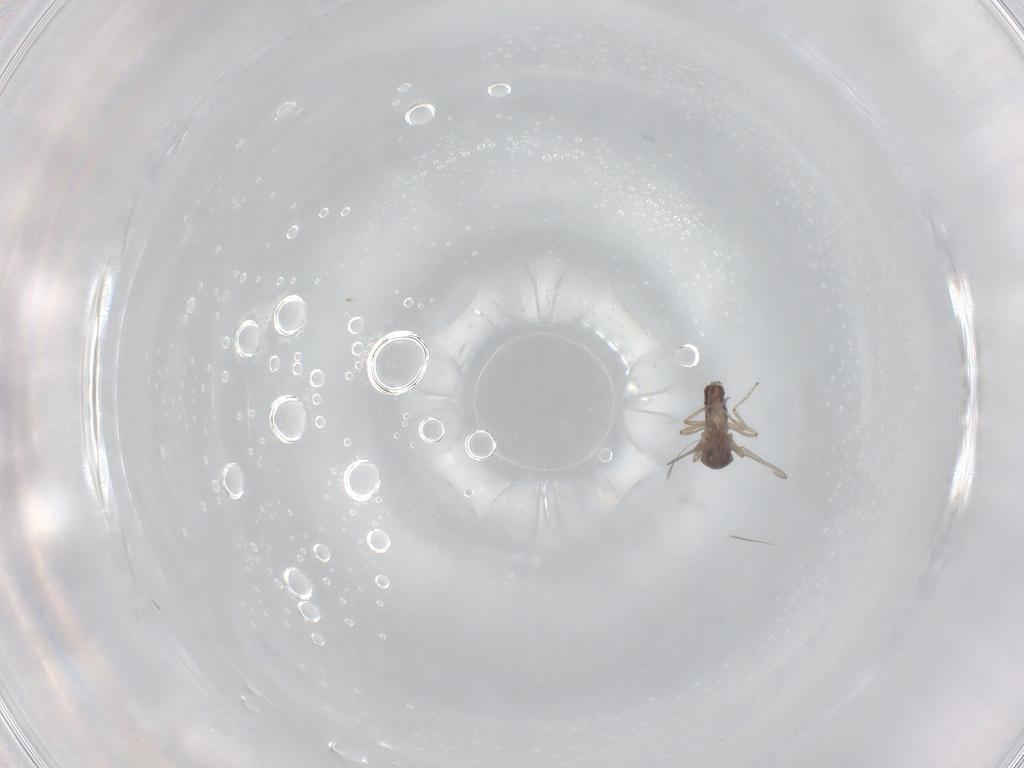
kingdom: Animalia
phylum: Arthropoda
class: Insecta
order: Diptera
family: Ceratopogonidae
